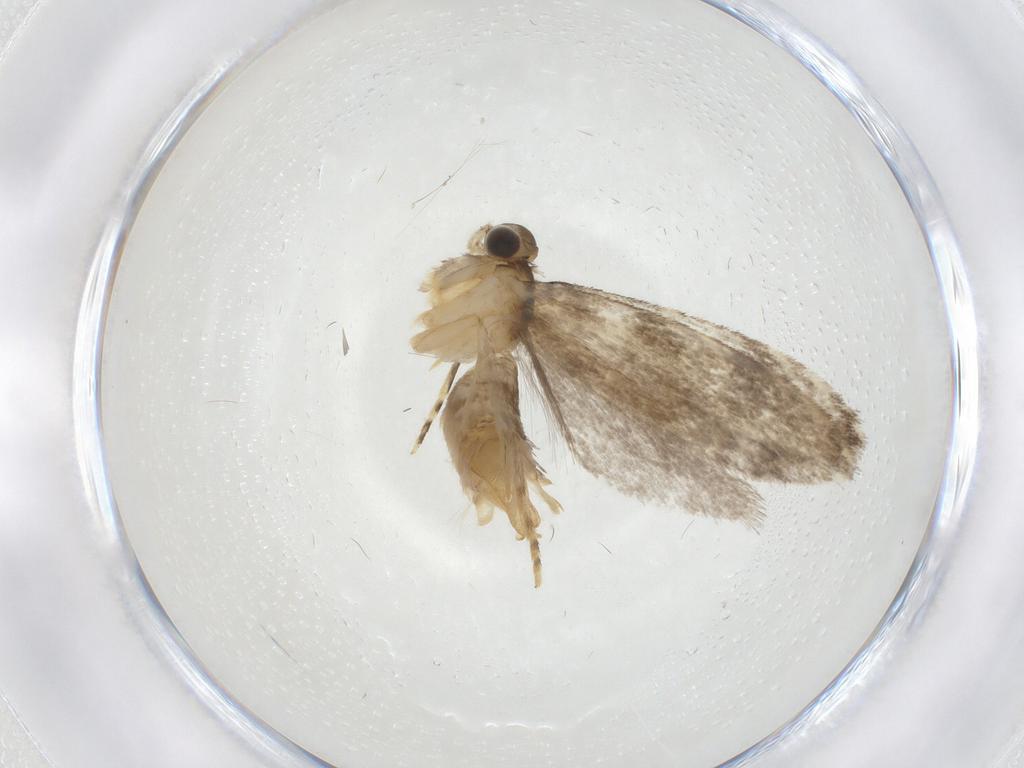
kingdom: Animalia
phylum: Arthropoda
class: Insecta
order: Lepidoptera
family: Tineidae
